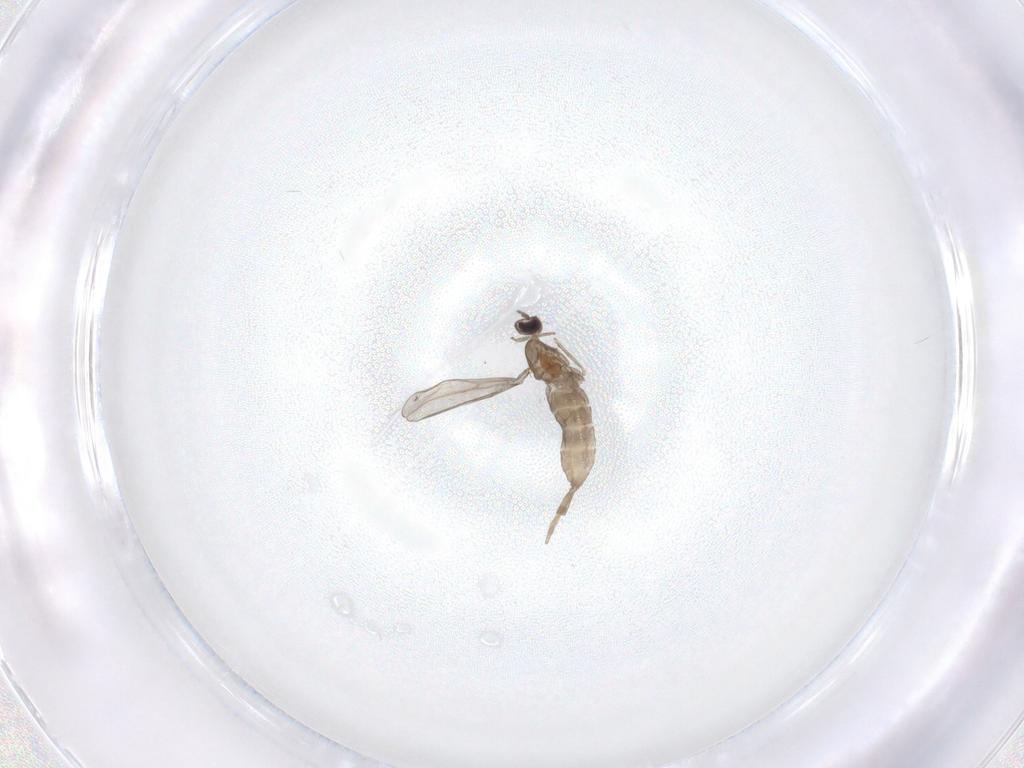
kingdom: Animalia
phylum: Arthropoda
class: Insecta
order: Diptera
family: Cecidomyiidae
